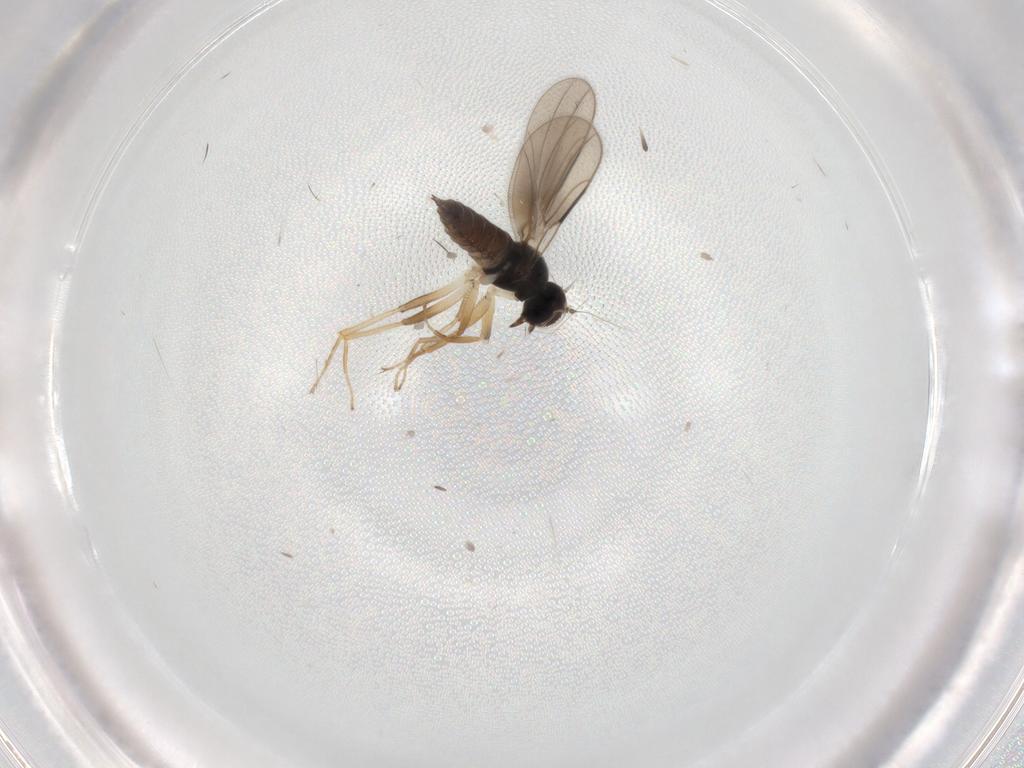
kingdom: Animalia
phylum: Arthropoda
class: Insecta
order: Diptera
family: Hybotidae
